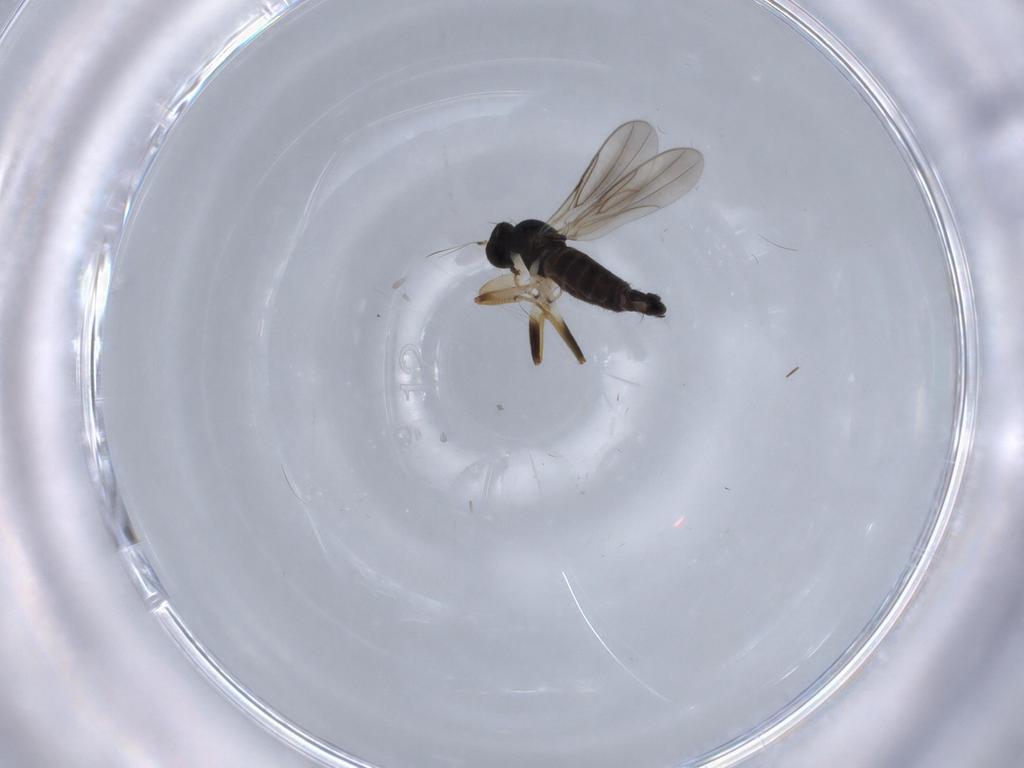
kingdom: Animalia
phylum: Arthropoda
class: Insecta
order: Diptera
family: Hybotidae
